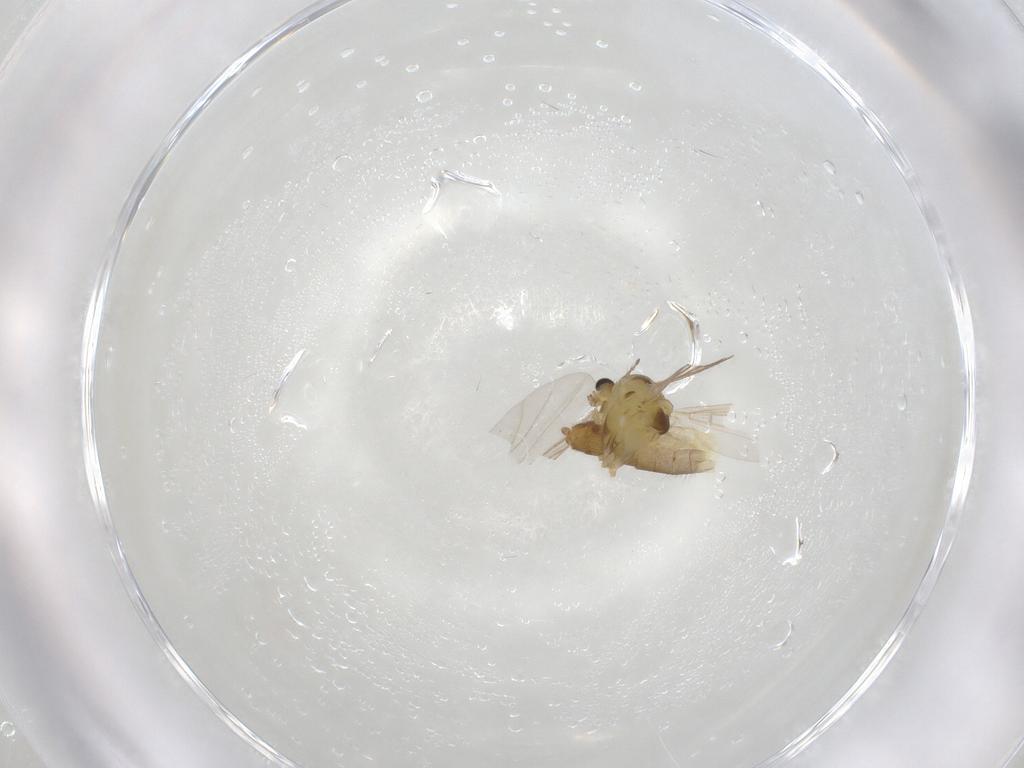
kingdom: Animalia
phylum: Arthropoda
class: Insecta
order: Diptera
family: Chironomidae
